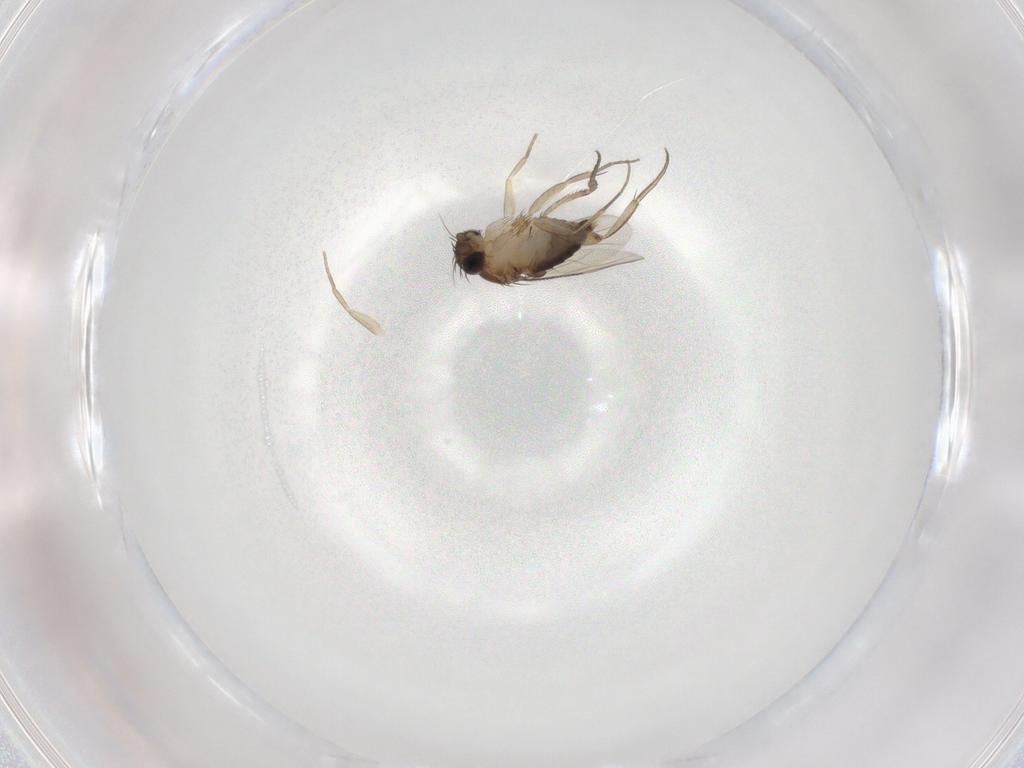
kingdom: Animalia
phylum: Arthropoda
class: Insecta
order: Diptera
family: Phoridae
